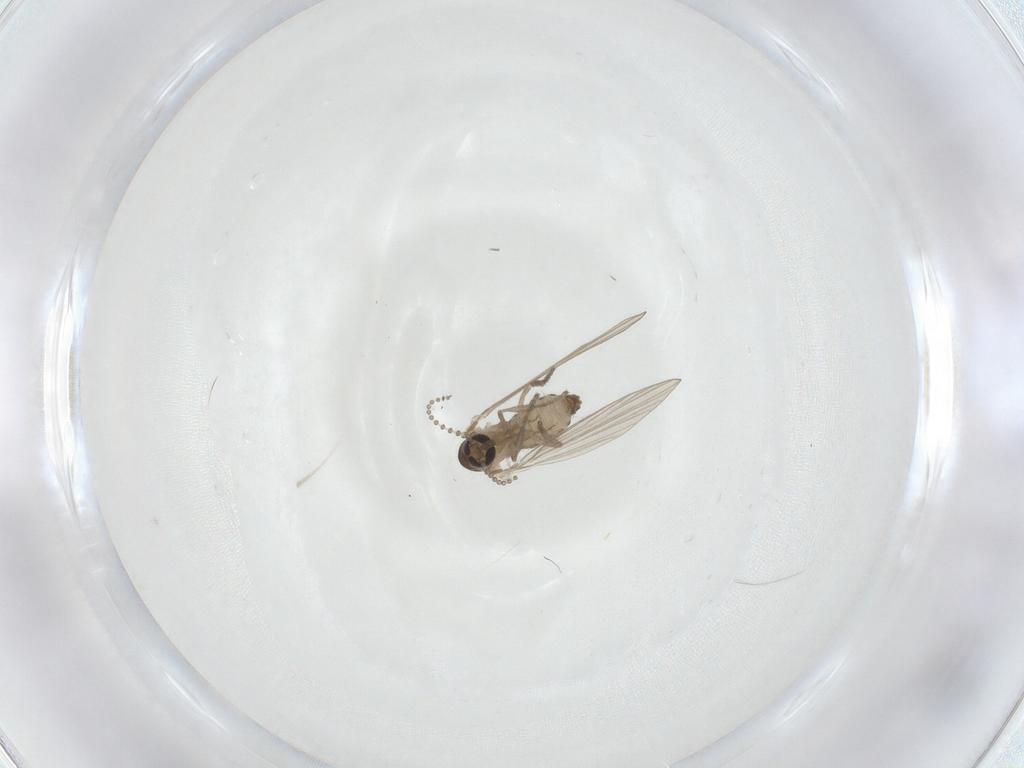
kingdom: Animalia
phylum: Arthropoda
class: Insecta
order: Diptera
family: Psychodidae
